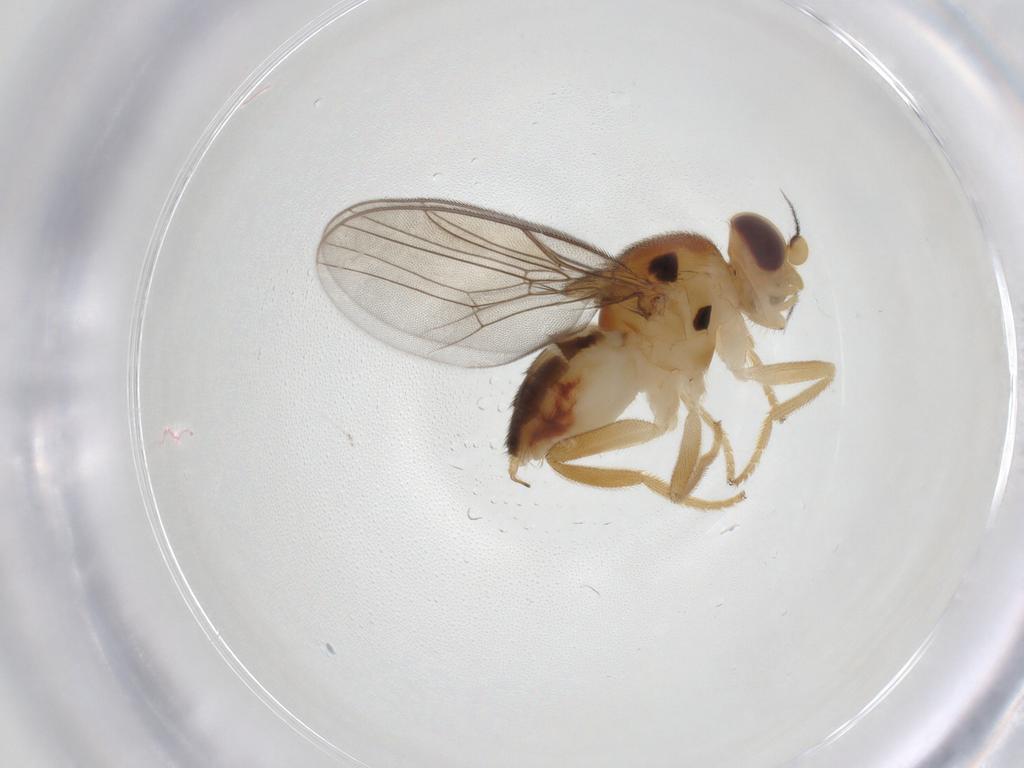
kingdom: Animalia
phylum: Arthropoda
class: Insecta
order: Diptera
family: Chloropidae
